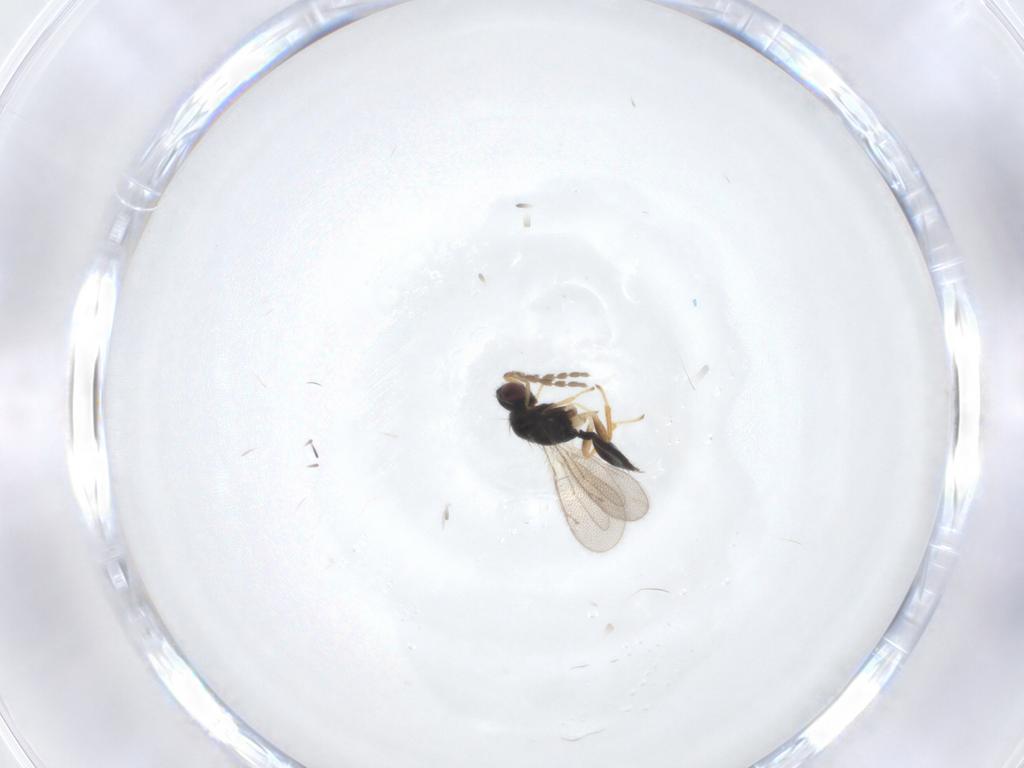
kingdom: Animalia
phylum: Arthropoda
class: Insecta
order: Hymenoptera
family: Eulophidae
